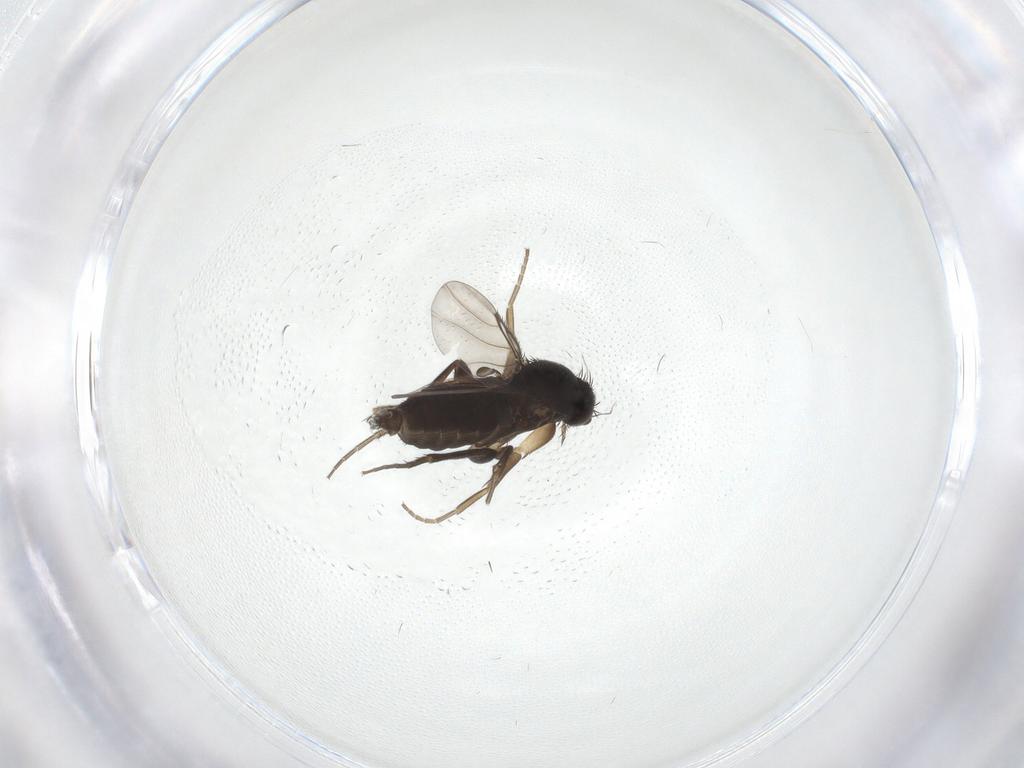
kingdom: Animalia
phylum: Arthropoda
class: Insecta
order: Diptera
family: Phoridae
